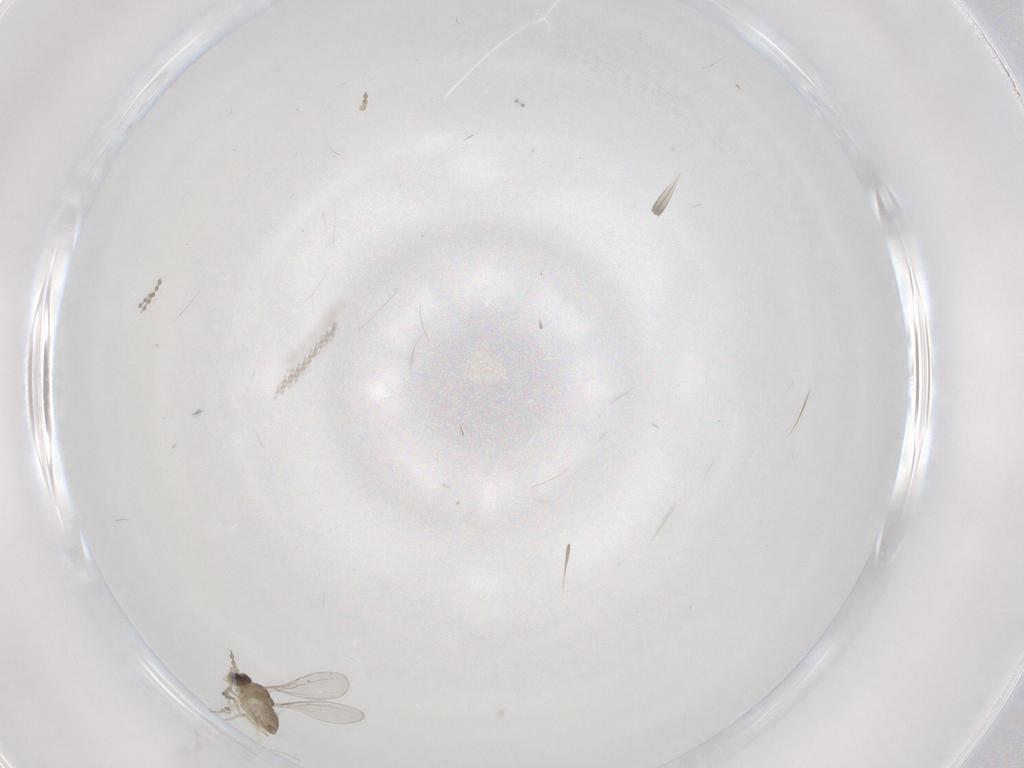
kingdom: Animalia
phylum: Arthropoda
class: Insecta
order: Diptera
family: Cecidomyiidae
